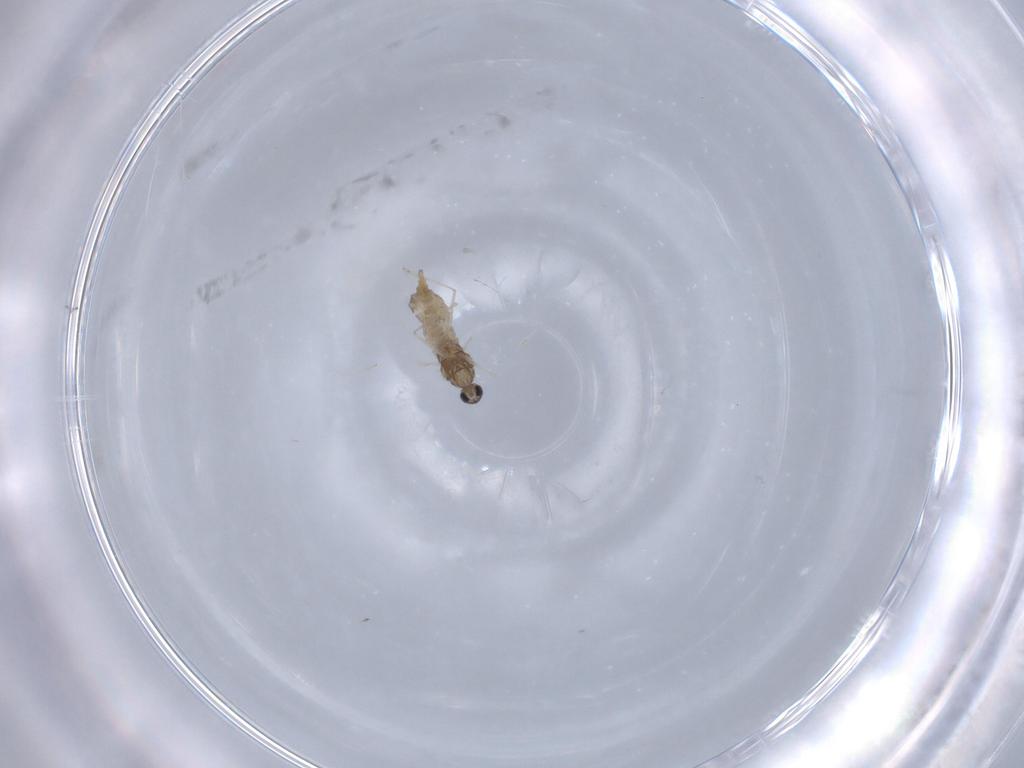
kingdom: Animalia
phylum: Arthropoda
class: Insecta
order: Diptera
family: Cecidomyiidae
